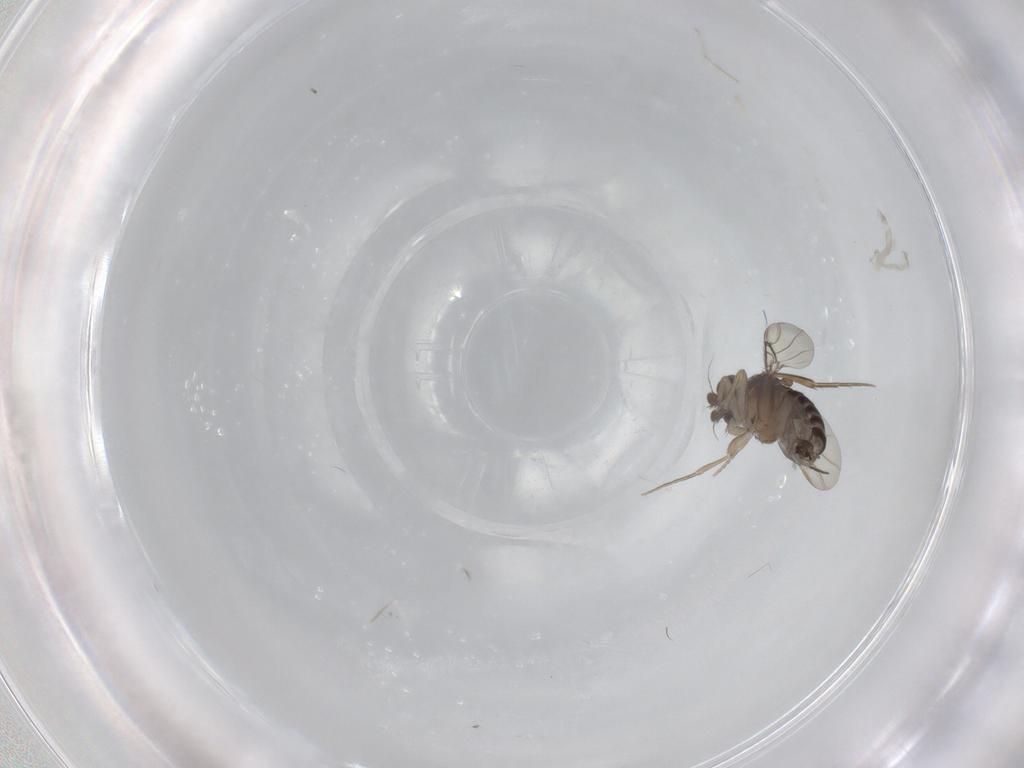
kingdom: Animalia
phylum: Arthropoda
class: Insecta
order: Diptera
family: Phoridae
